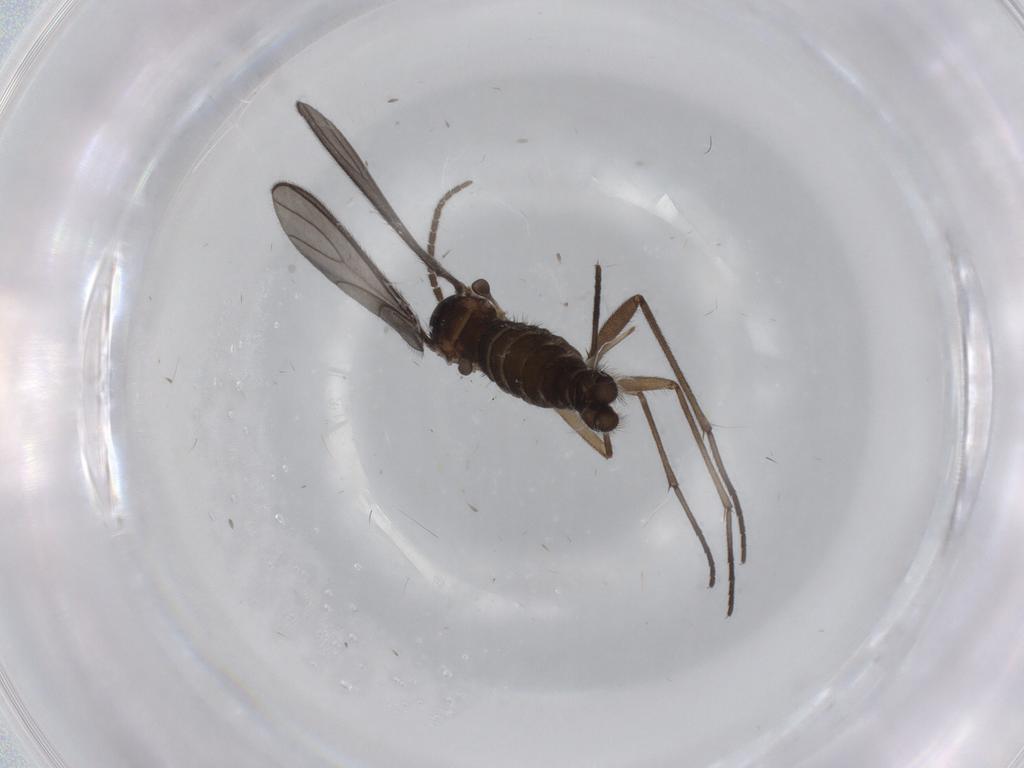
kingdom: Animalia
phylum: Arthropoda
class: Insecta
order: Diptera
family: Sciaridae
